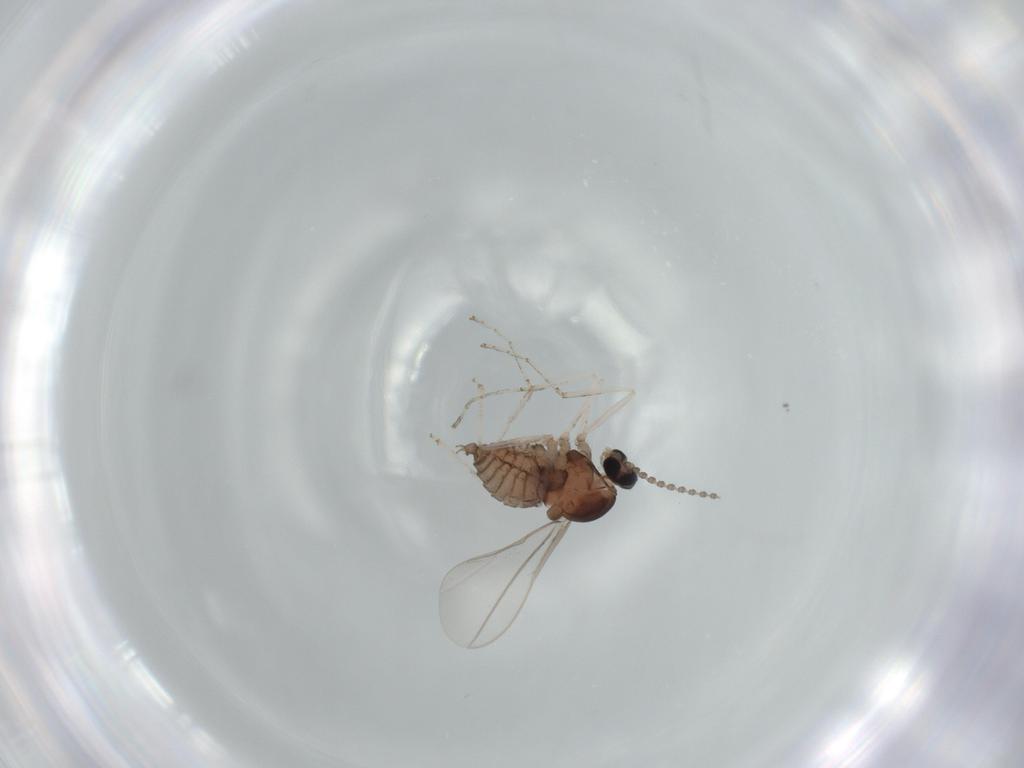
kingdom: Animalia
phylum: Arthropoda
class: Insecta
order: Diptera
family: Cecidomyiidae
